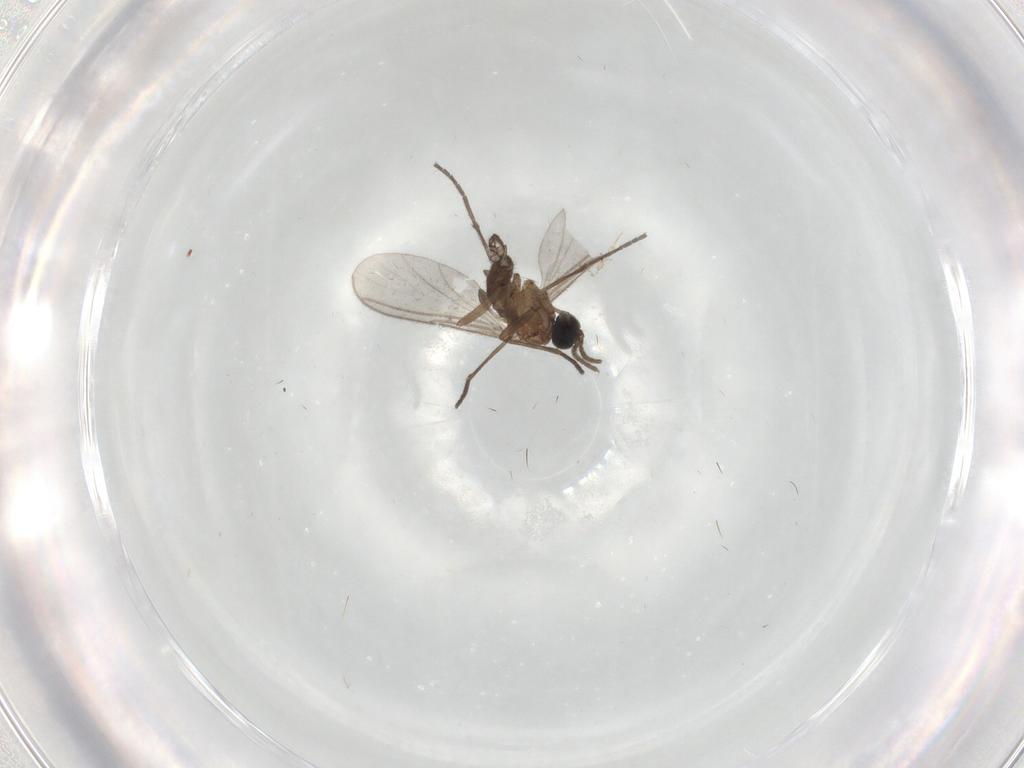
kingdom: Animalia
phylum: Arthropoda
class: Insecta
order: Diptera
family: Sciaridae
